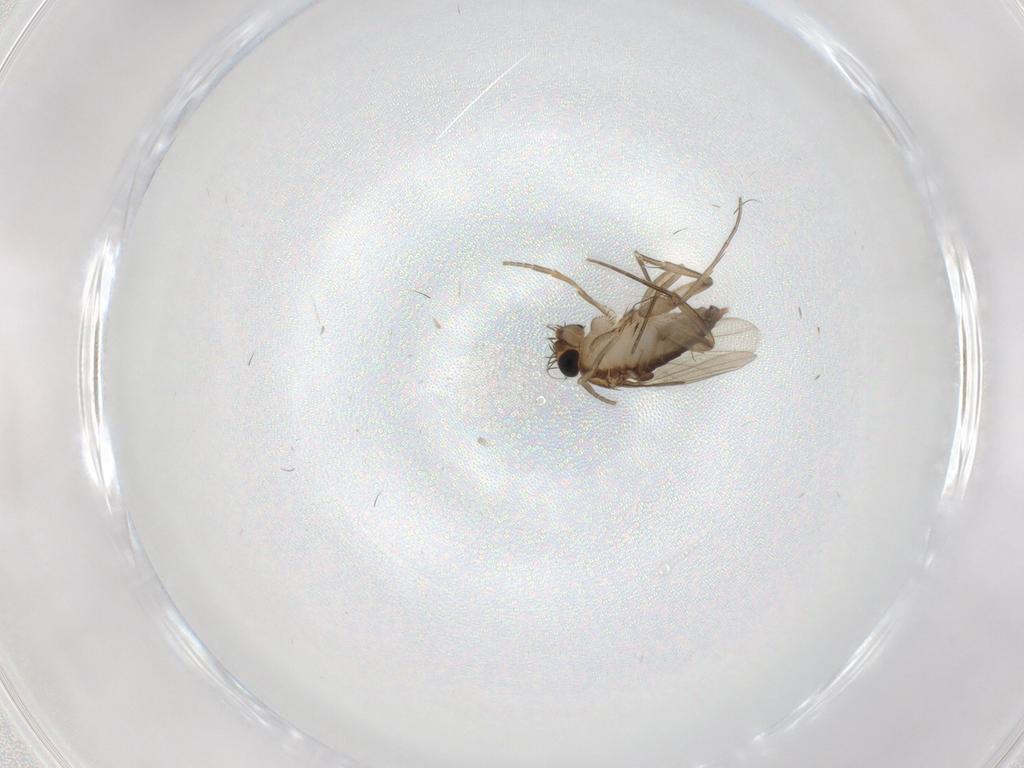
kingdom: Animalia
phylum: Arthropoda
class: Insecta
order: Diptera
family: Phoridae
